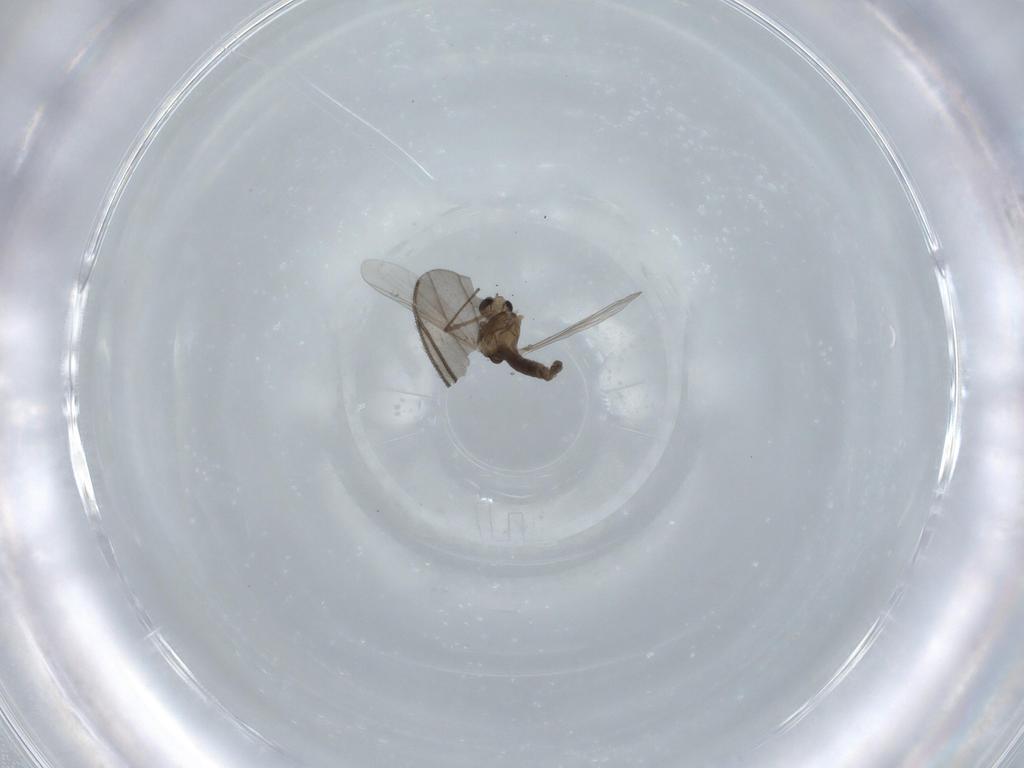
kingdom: Animalia
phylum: Arthropoda
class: Insecta
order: Diptera
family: Chironomidae
